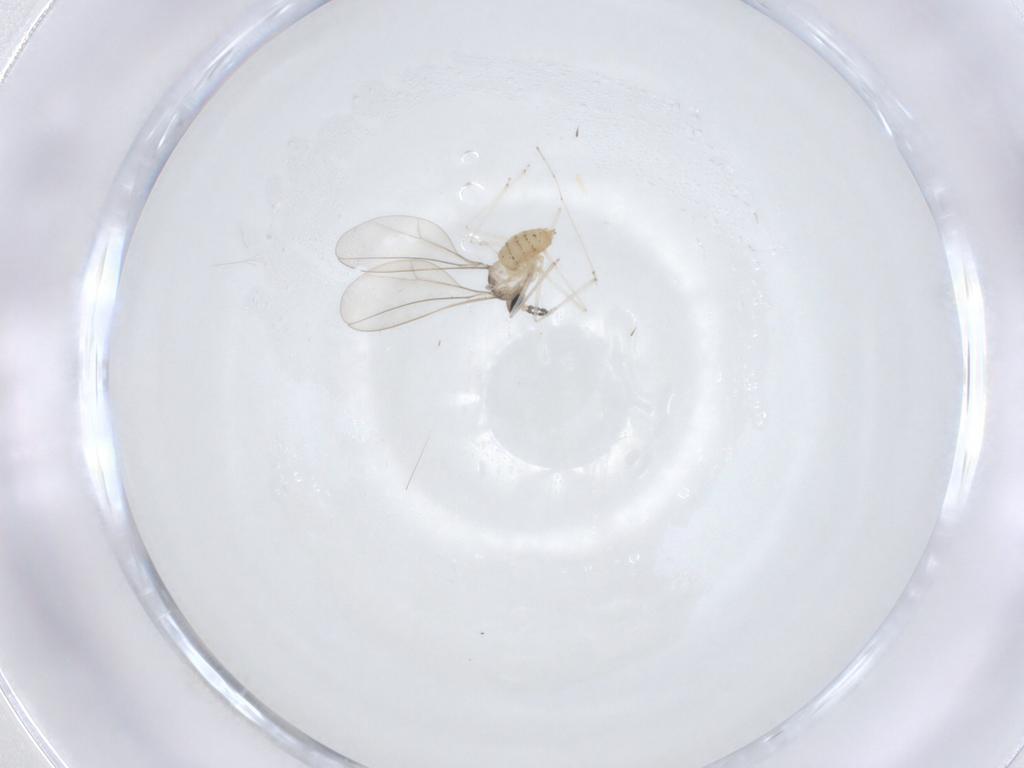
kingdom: Animalia
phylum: Arthropoda
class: Insecta
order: Diptera
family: Cecidomyiidae
